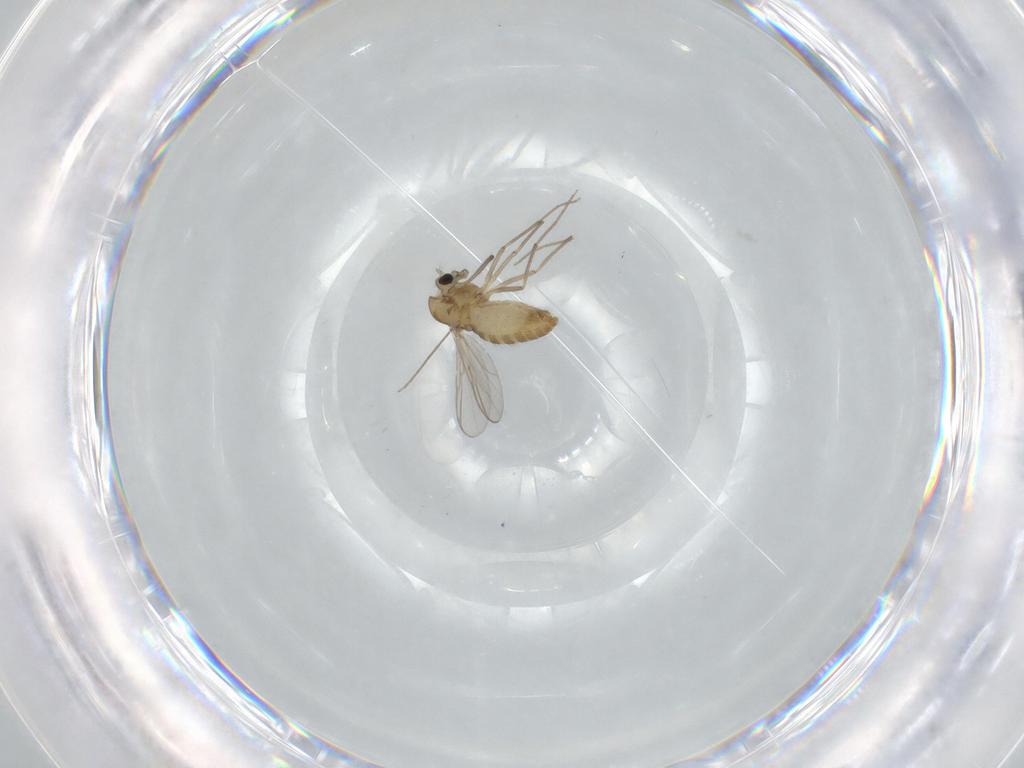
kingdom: Animalia
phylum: Arthropoda
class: Insecta
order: Diptera
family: Chironomidae
